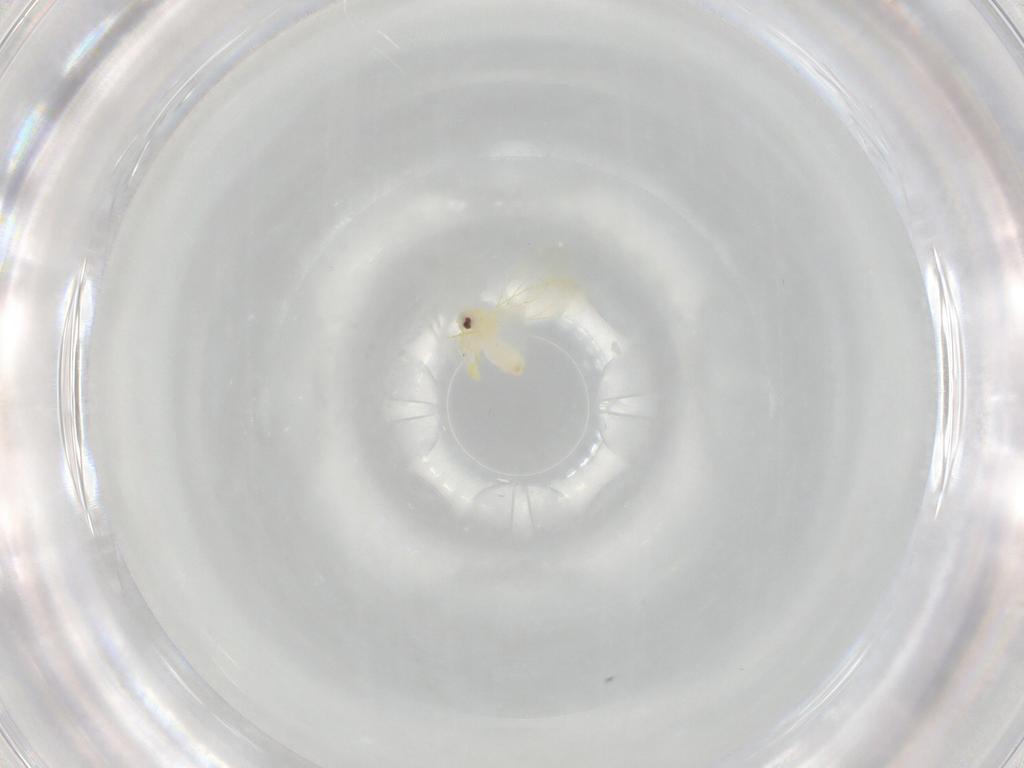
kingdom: Animalia
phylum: Arthropoda
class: Insecta
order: Hemiptera
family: Aleyrodidae
